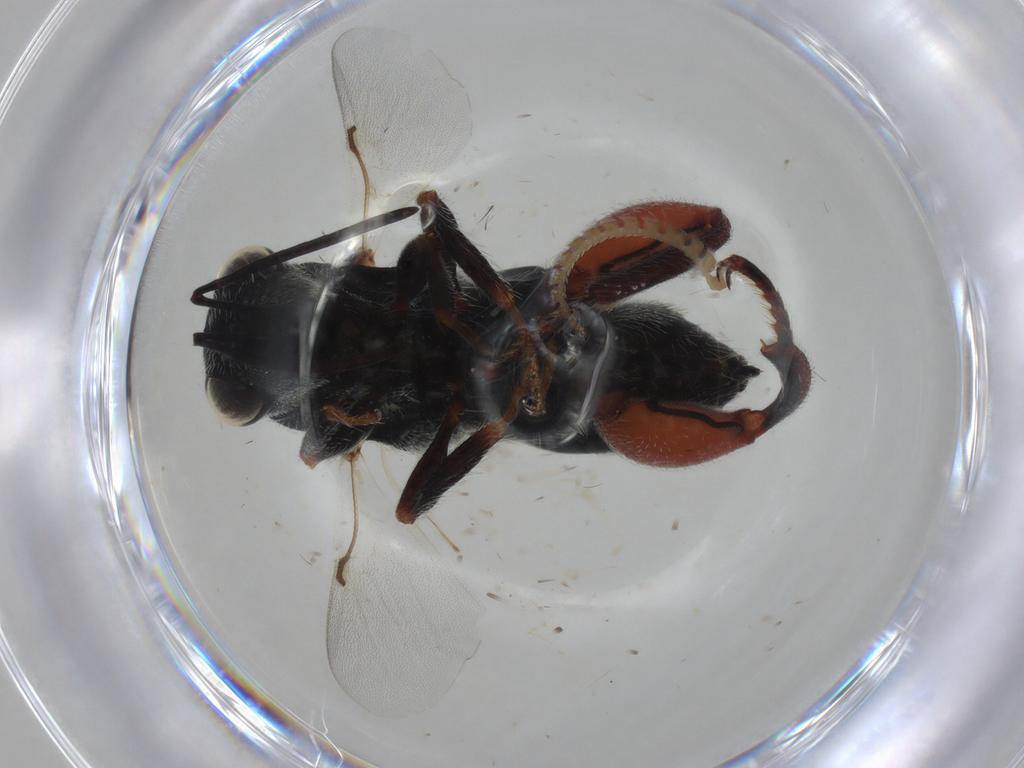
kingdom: Animalia
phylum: Arthropoda
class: Insecta
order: Hymenoptera
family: Chalcididae
